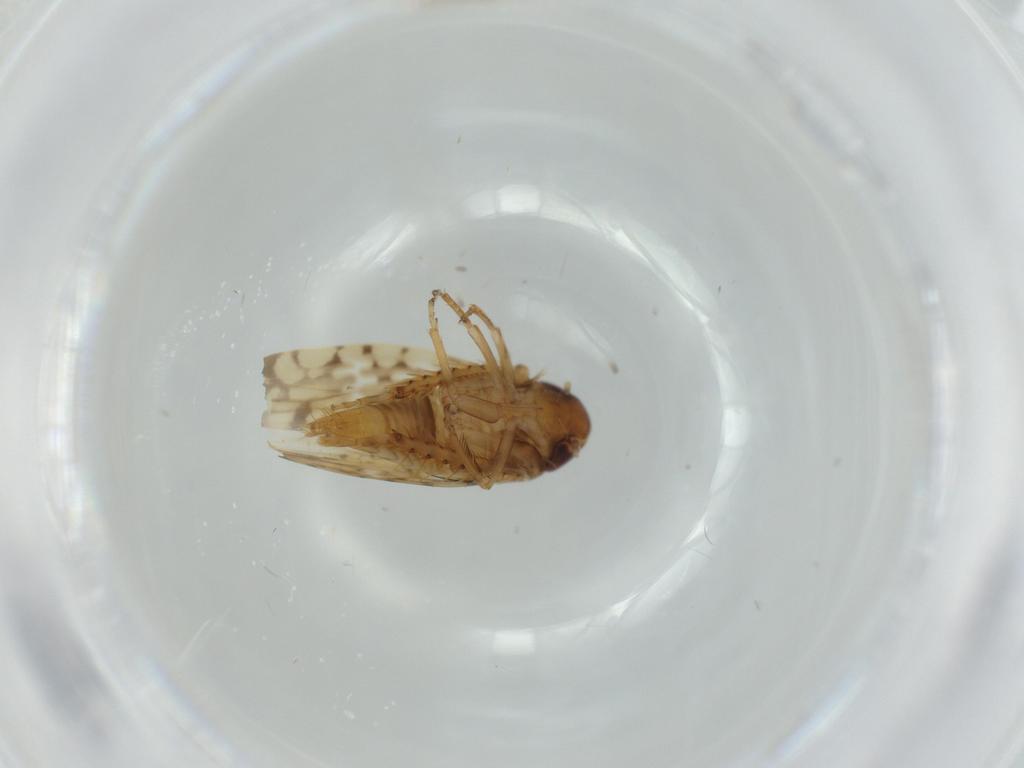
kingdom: Animalia
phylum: Arthropoda
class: Insecta
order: Hemiptera
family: Cicadellidae
